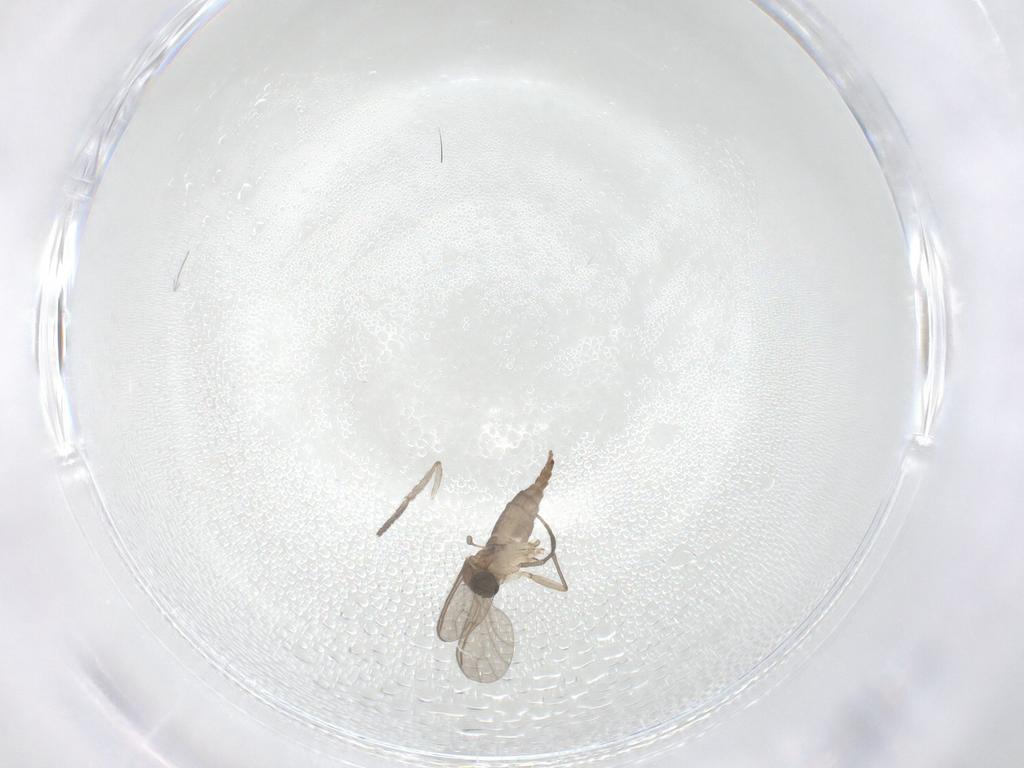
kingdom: Animalia
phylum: Arthropoda
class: Insecta
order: Diptera
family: Sciaridae
